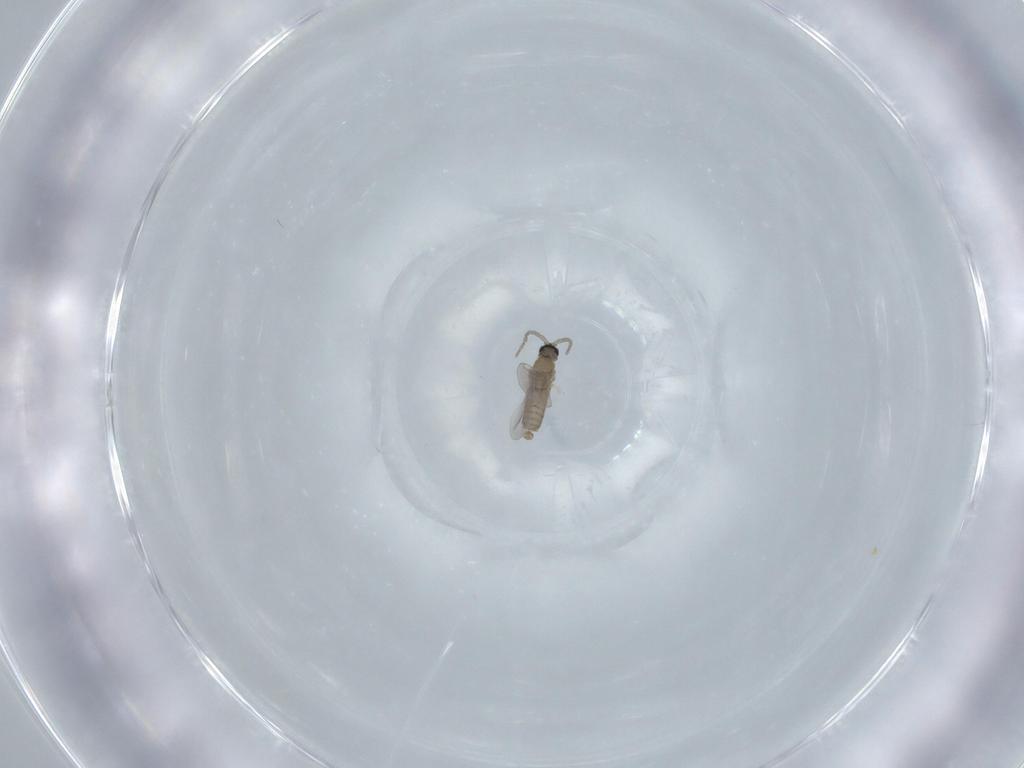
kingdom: Animalia
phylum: Arthropoda
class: Insecta
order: Diptera
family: Cecidomyiidae
